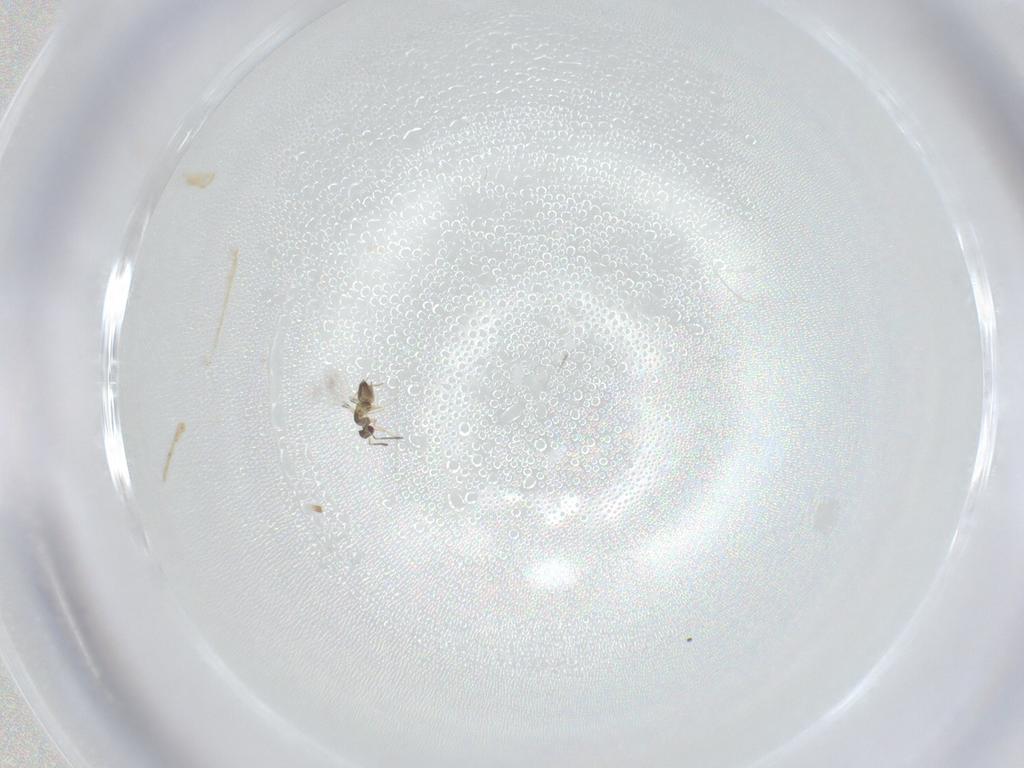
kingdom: Animalia
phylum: Arthropoda
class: Insecta
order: Hymenoptera
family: Mymaridae
